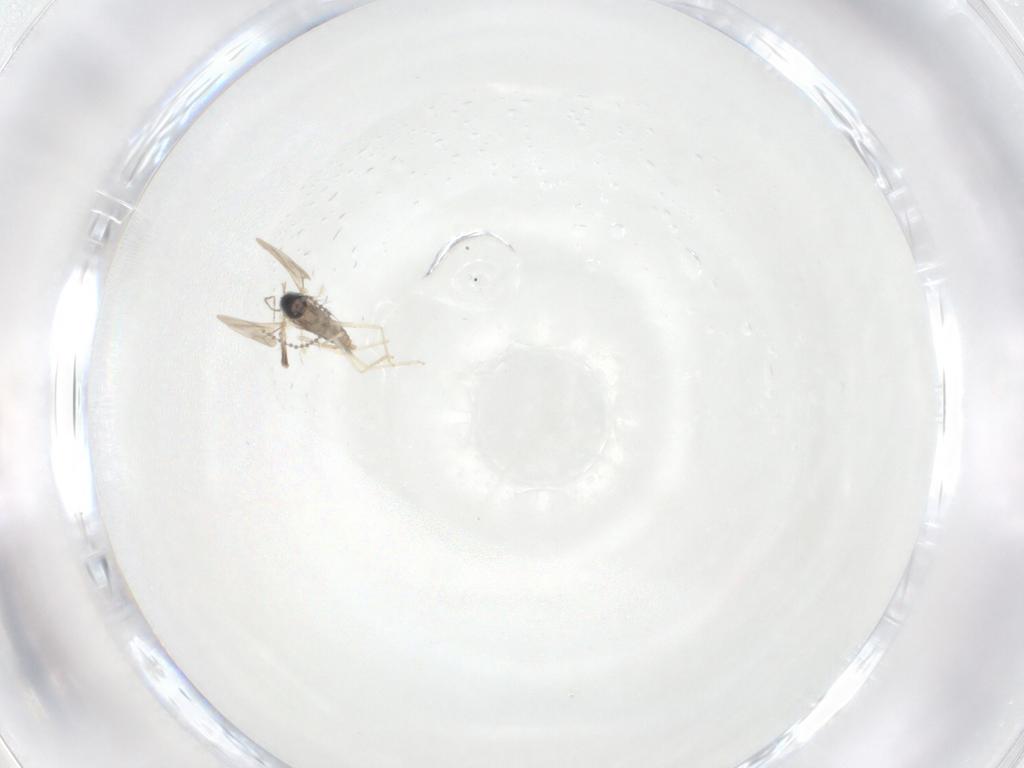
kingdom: Animalia
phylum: Arthropoda
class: Insecta
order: Diptera
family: Cecidomyiidae
